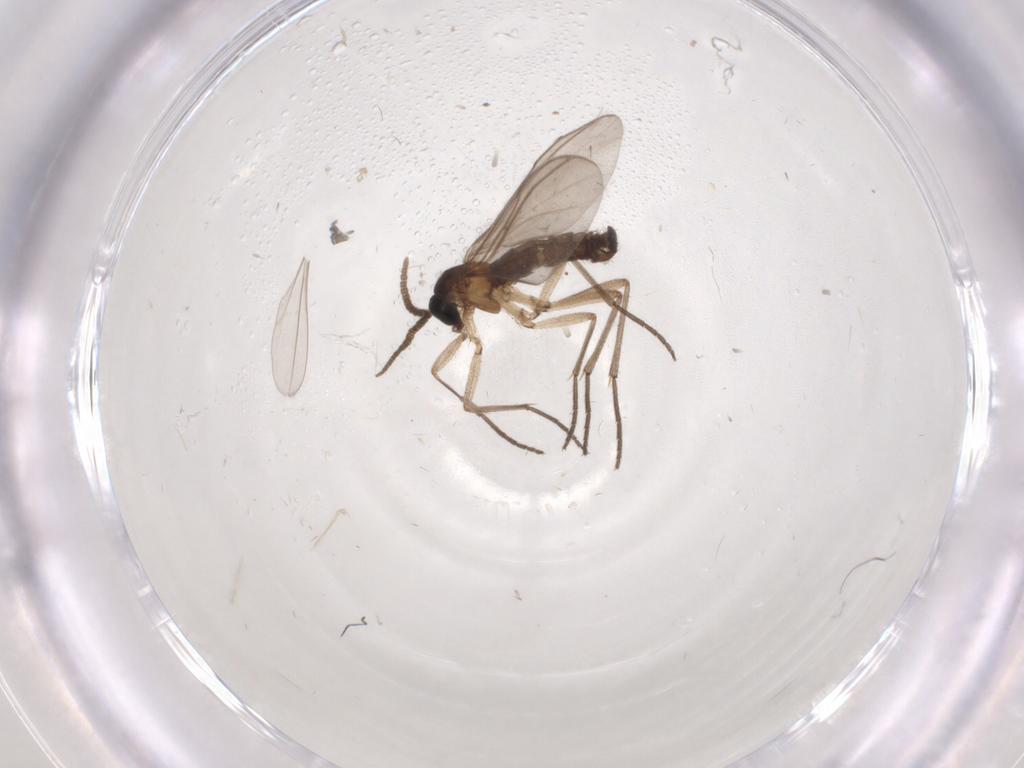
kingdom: Animalia
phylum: Arthropoda
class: Insecta
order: Diptera
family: Cecidomyiidae
